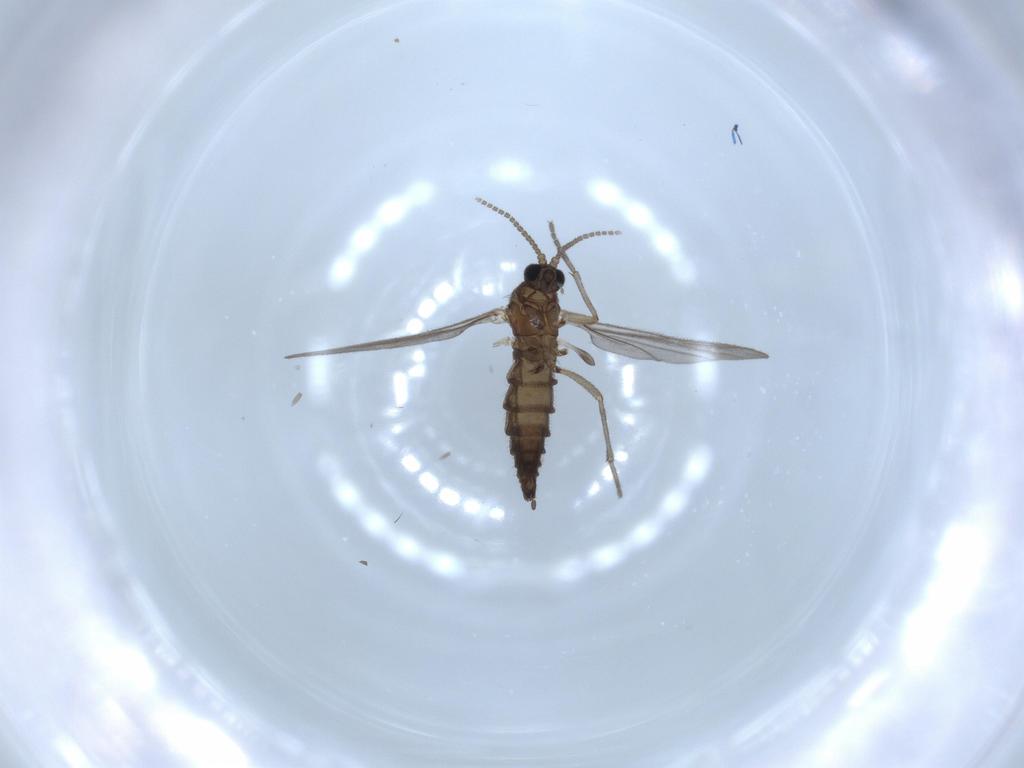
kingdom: Animalia
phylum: Arthropoda
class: Insecta
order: Diptera
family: Sciaridae
